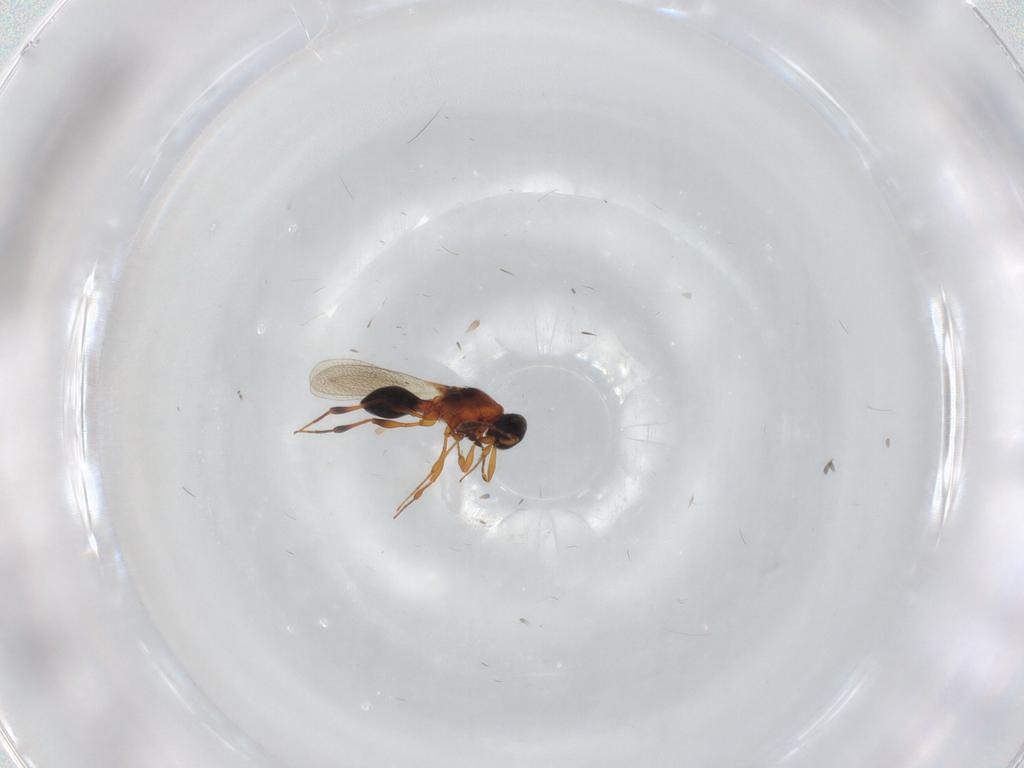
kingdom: Animalia
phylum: Arthropoda
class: Insecta
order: Hymenoptera
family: Platygastridae
